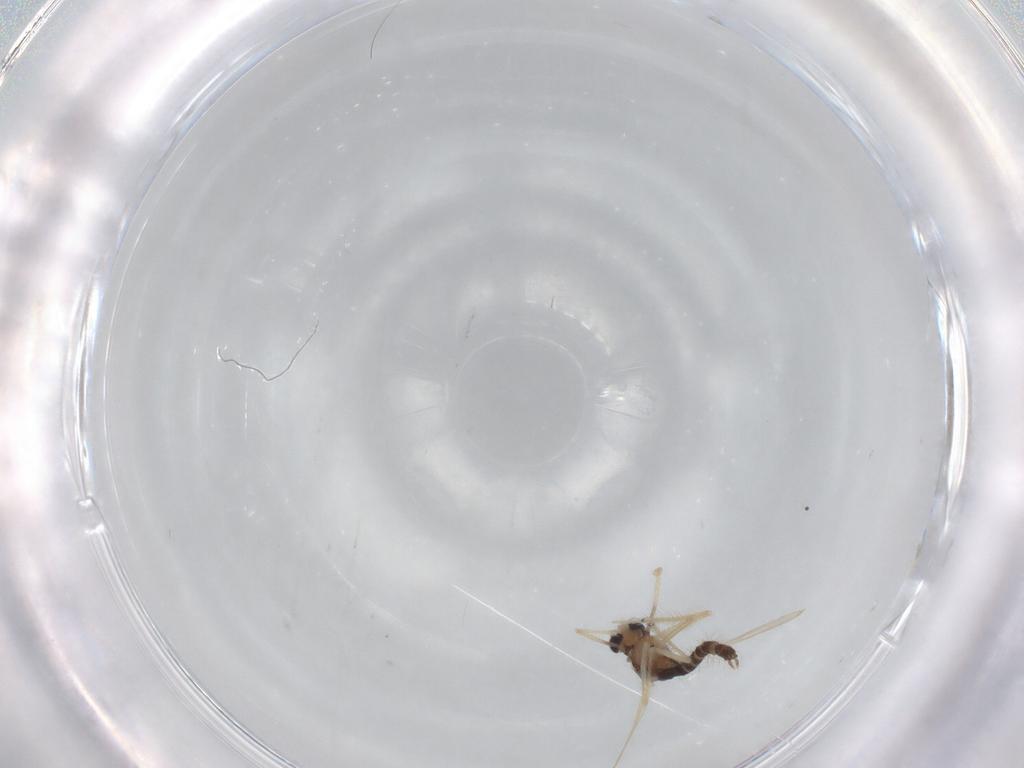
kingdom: Animalia
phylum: Arthropoda
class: Insecta
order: Diptera
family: Chironomidae
